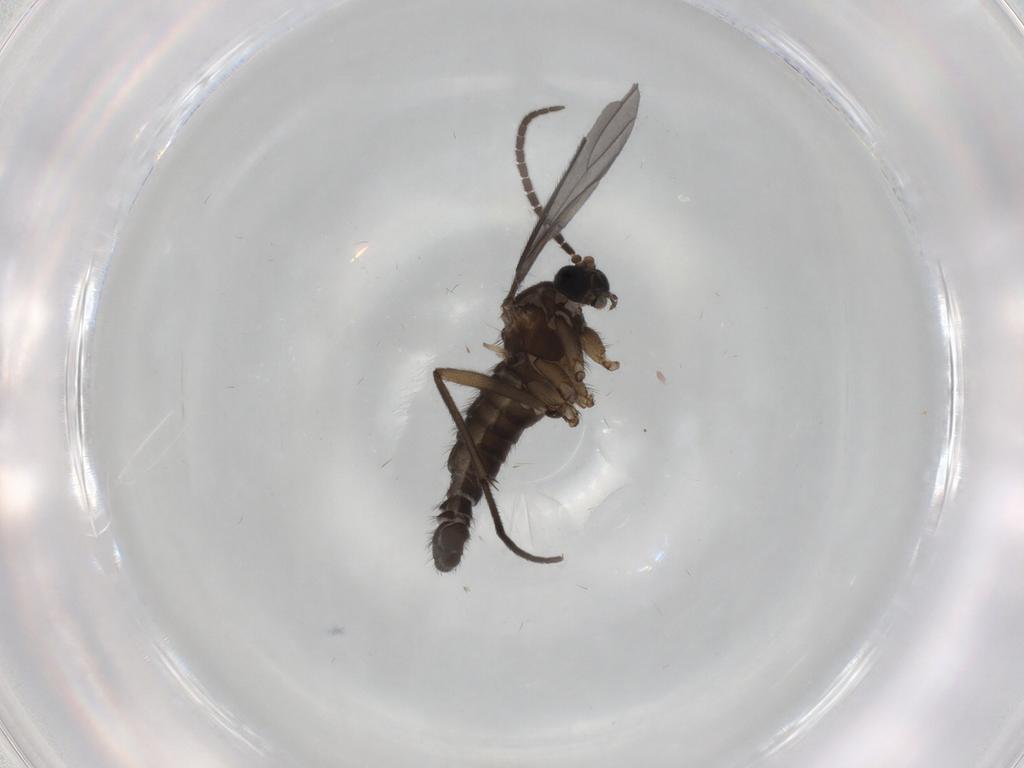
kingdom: Animalia
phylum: Arthropoda
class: Insecta
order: Diptera
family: Sciaridae
